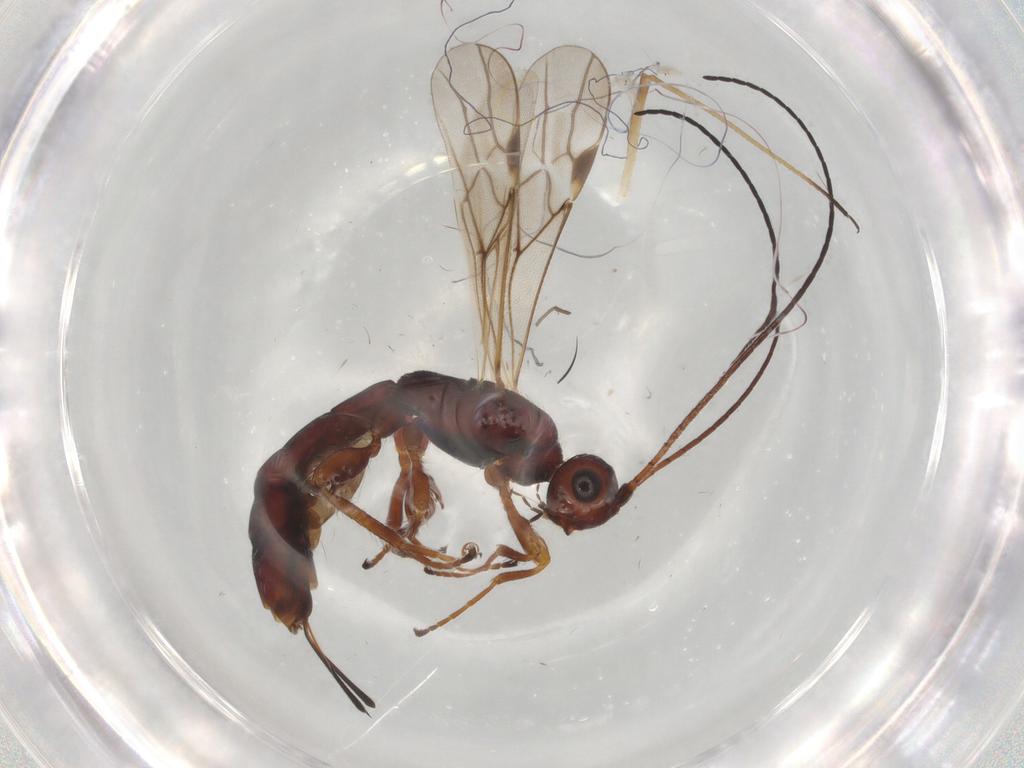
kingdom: Animalia
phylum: Arthropoda
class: Insecta
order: Hymenoptera
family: Braconidae
